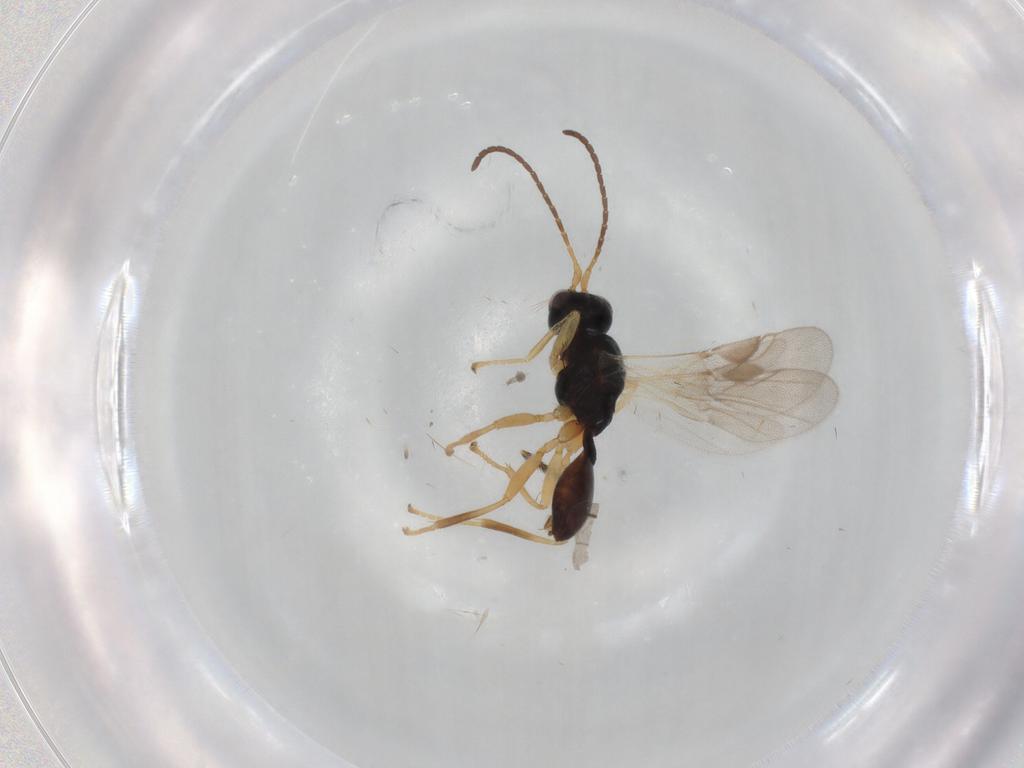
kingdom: Animalia
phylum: Arthropoda
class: Insecta
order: Hymenoptera
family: Braconidae
